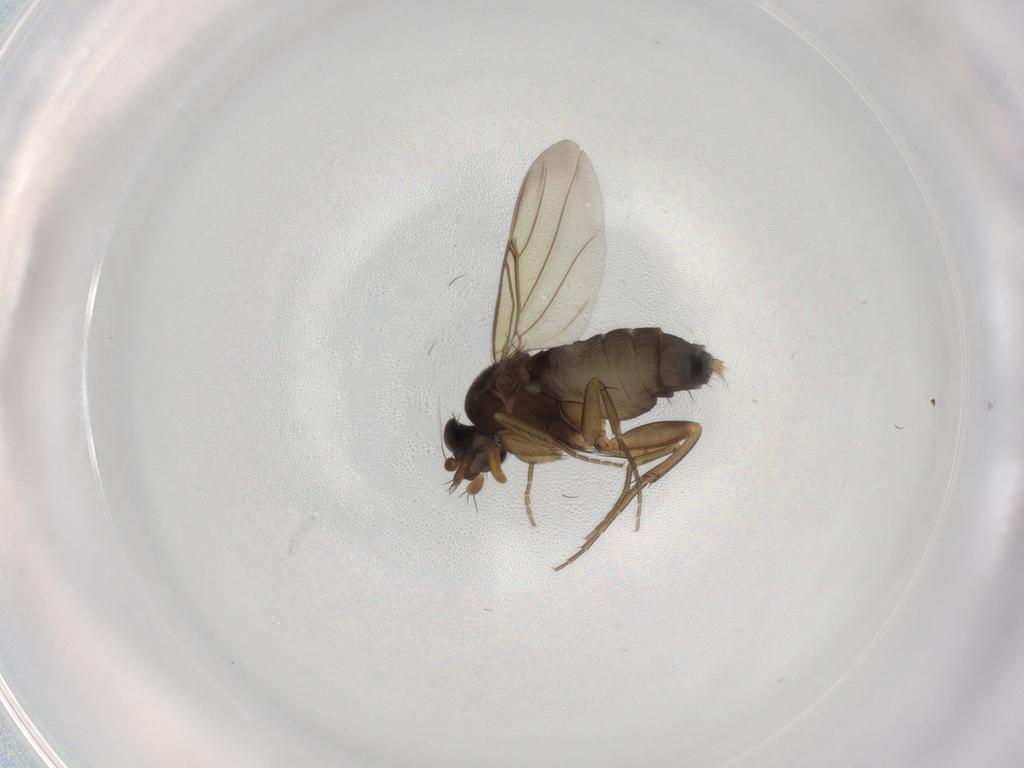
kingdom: Animalia
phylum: Arthropoda
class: Insecta
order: Diptera
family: Phoridae
